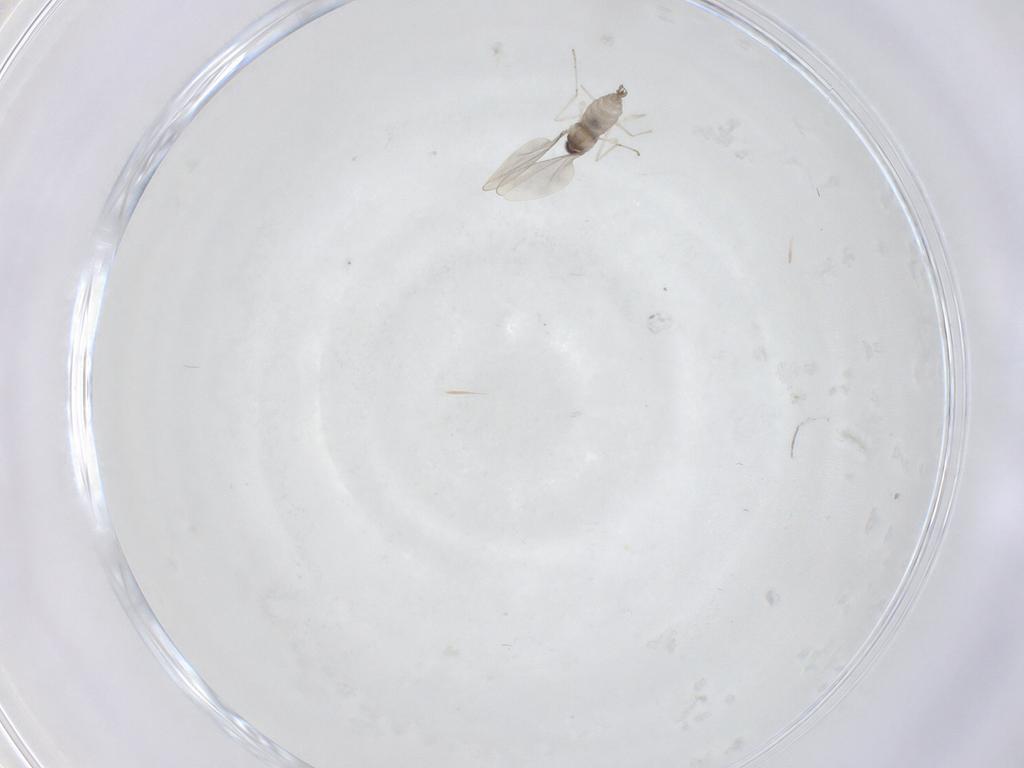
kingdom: Animalia
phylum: Arthropoda
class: Insecta
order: Diptera
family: Cecidomyiidae
